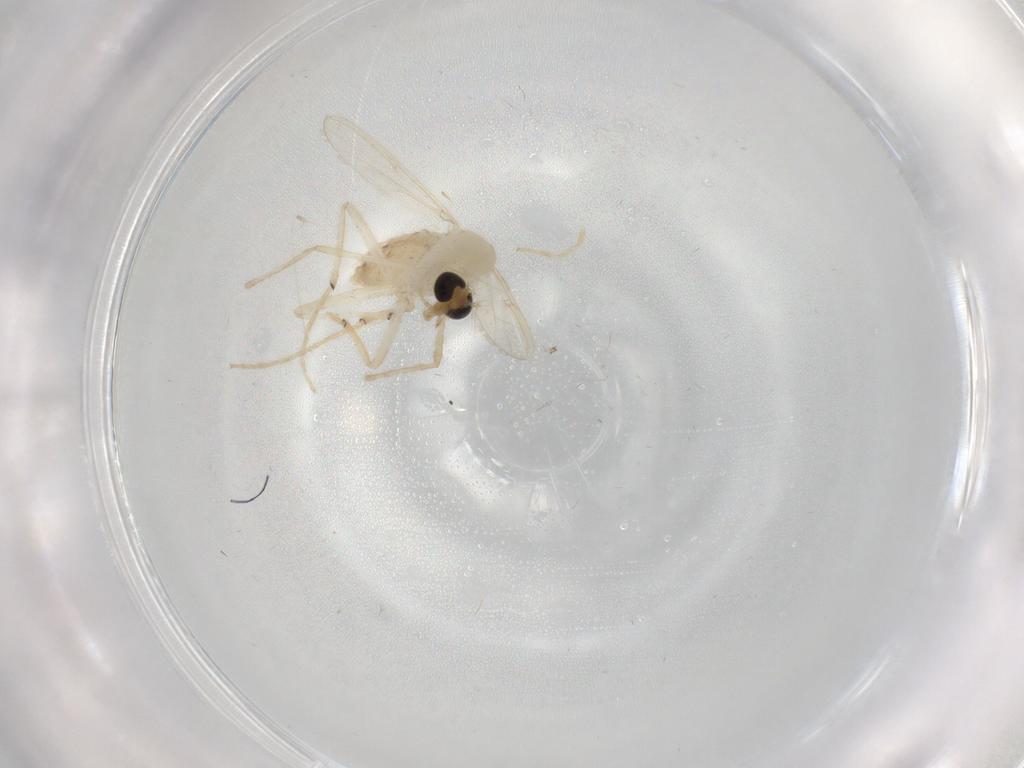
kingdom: Animalia
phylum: Arthropoda
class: Insecta
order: Diptera
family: Chironomidae
